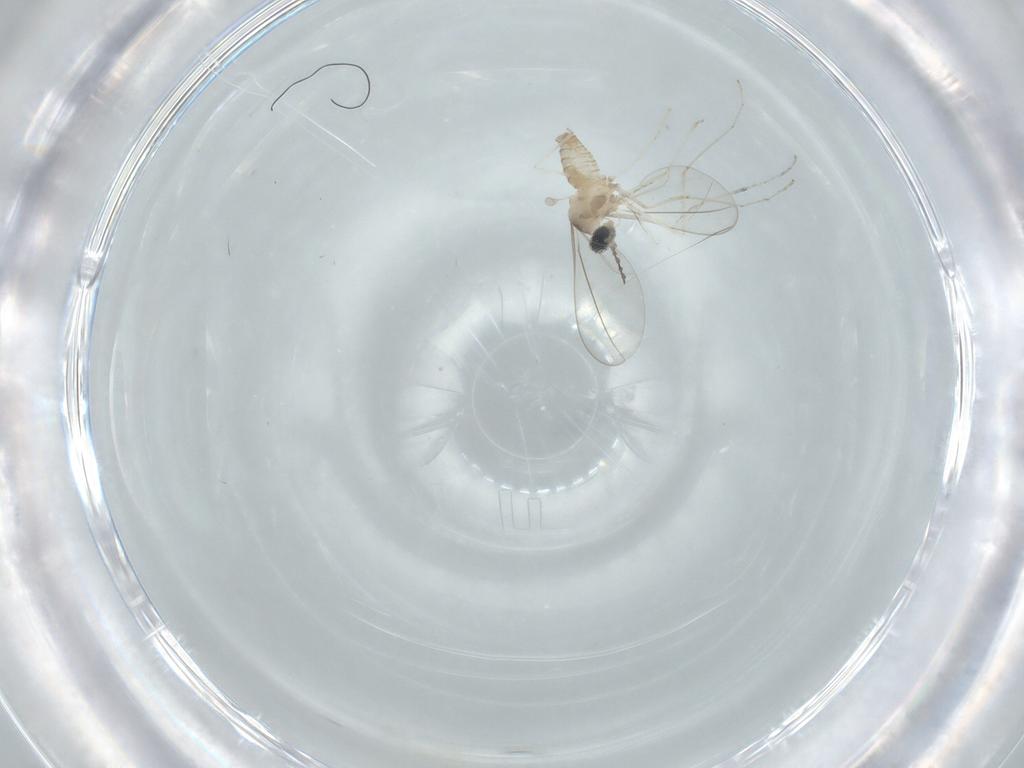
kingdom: Animalia
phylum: Arthropoda
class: Insecta
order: Diptera
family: Cecidomyiidae
